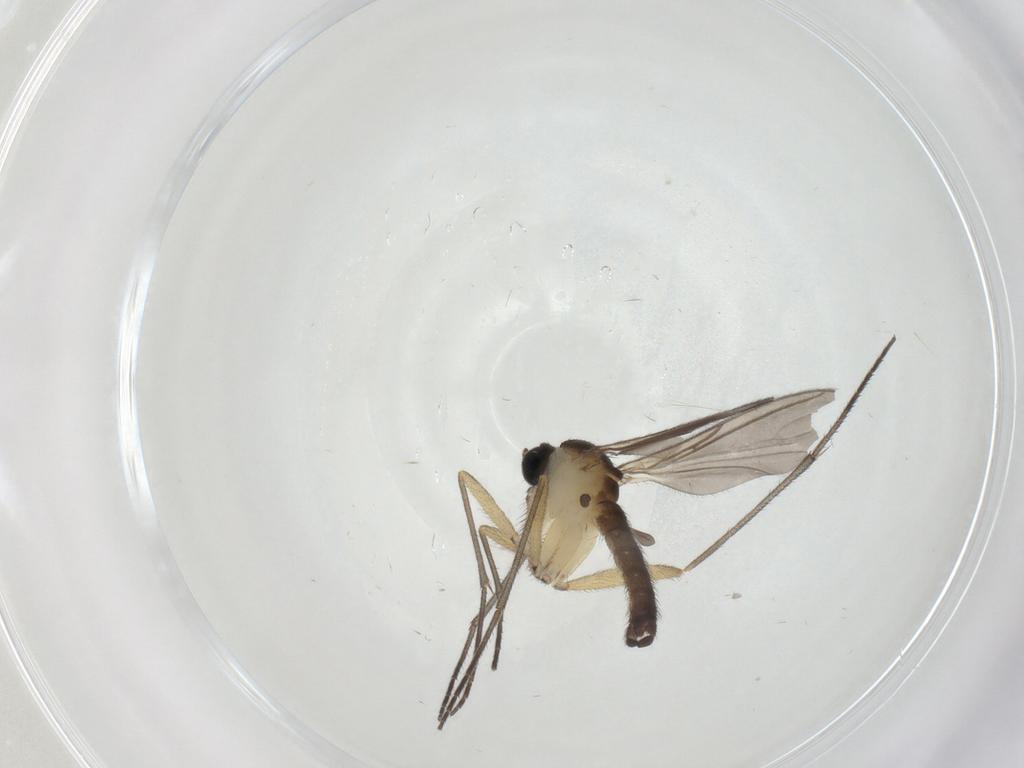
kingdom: Animalia
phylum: Arthropoda
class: Insecta
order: Diptera
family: Sciaridae
